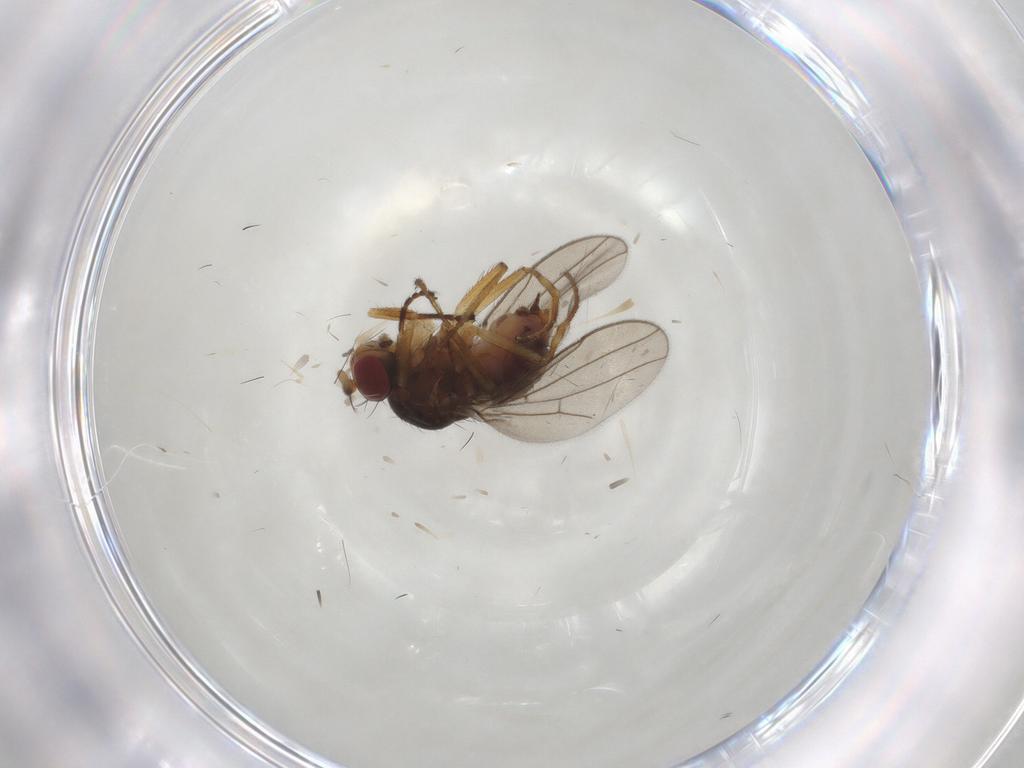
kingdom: Animalia
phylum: Arthropoda
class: Insecta
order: Diptera
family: Ephydridae
